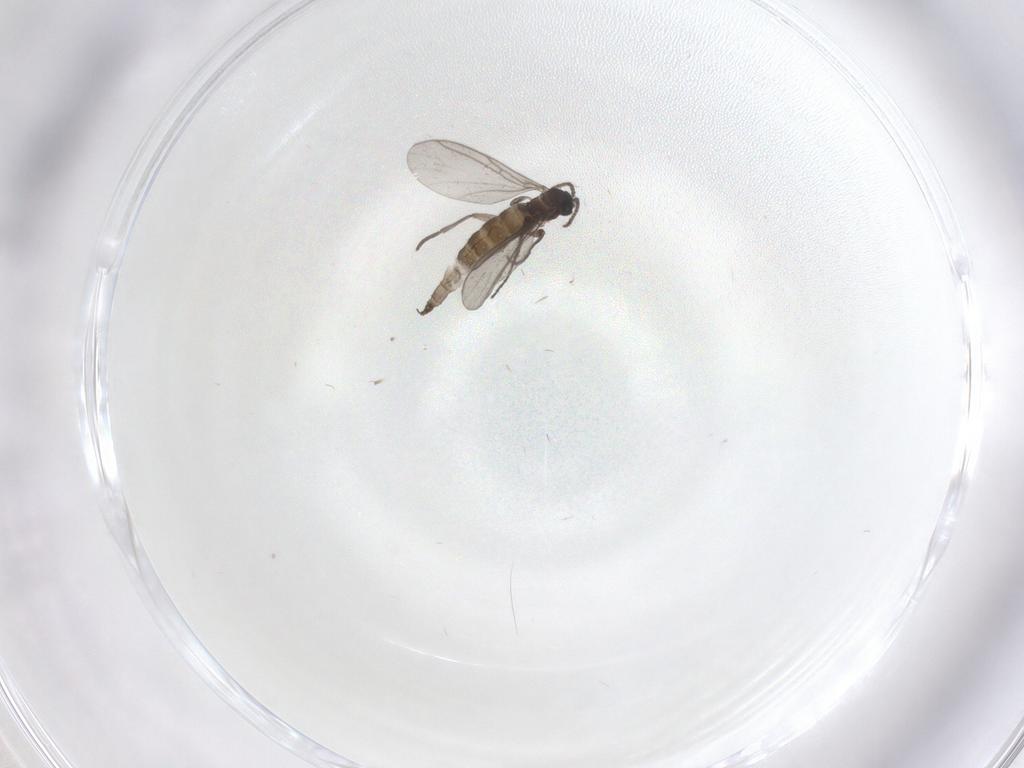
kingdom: Animalia
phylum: Arthropoda
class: Insecta
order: Diptera
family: Psychodidae
